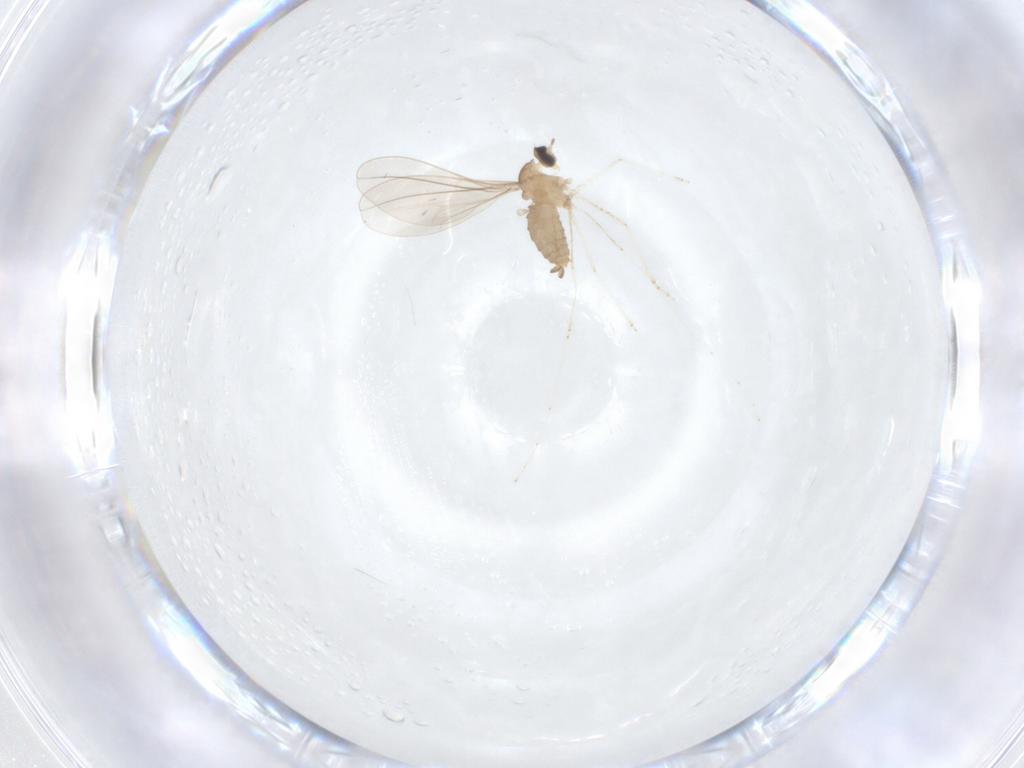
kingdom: Animalia
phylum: Arthropoda
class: Insecta
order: Diptera
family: Cecidomyiidae
